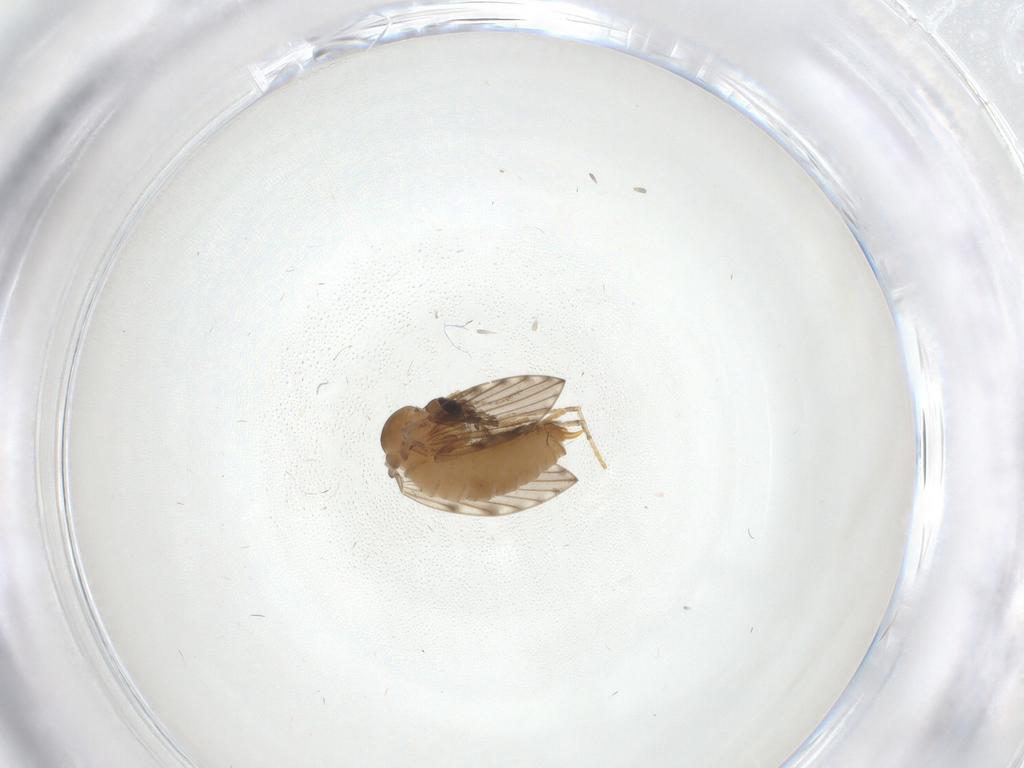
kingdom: Animalia
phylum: Arthropoda
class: Insecta
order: Diptera
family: Psychodidae
